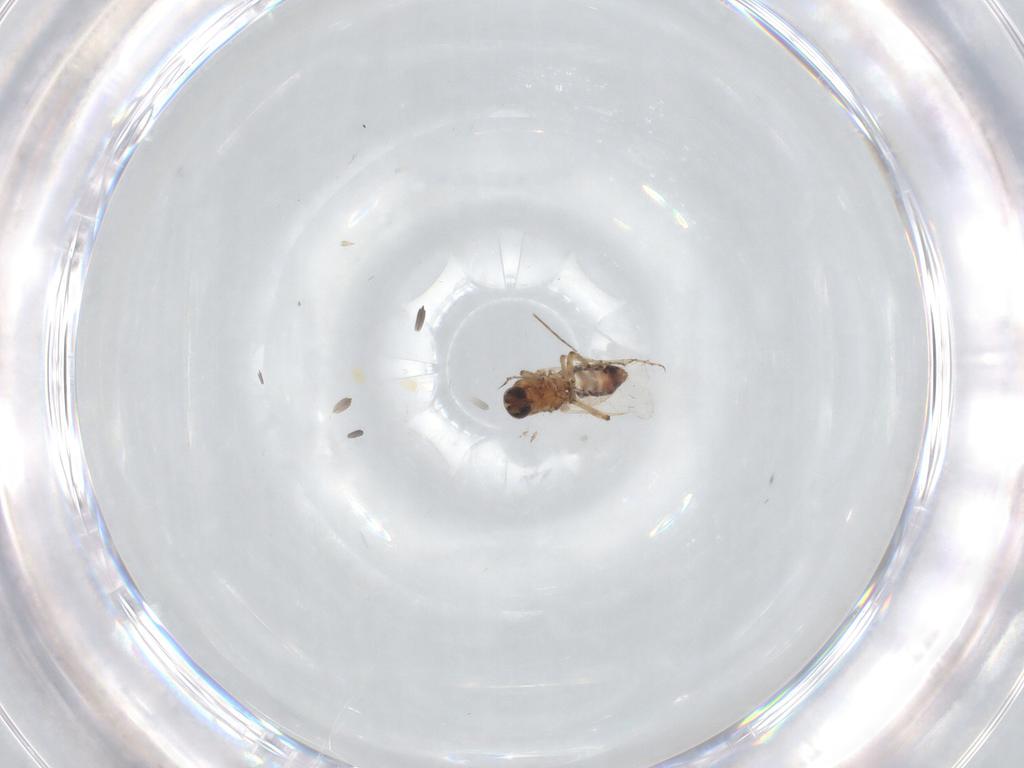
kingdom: Animalia
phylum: Arthropoda
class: Insecta
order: Diptera
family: Ceratopogonidae
